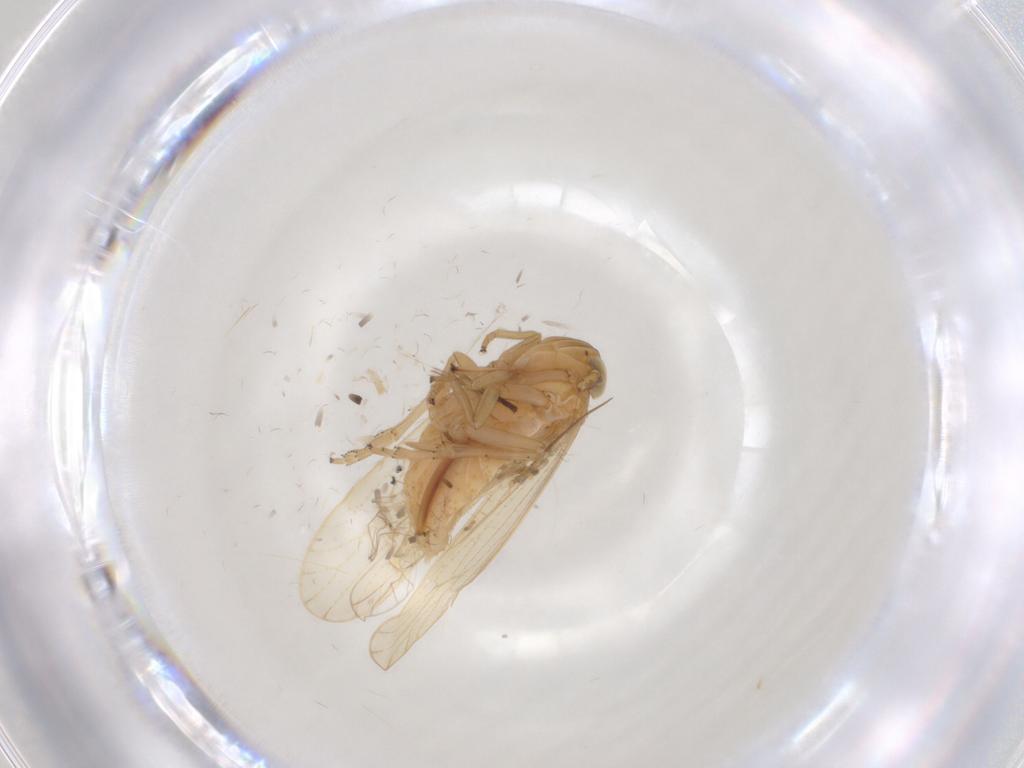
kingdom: Animalia
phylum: Arthropoda
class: Insecta
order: Hemiptera
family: Delphacidae
